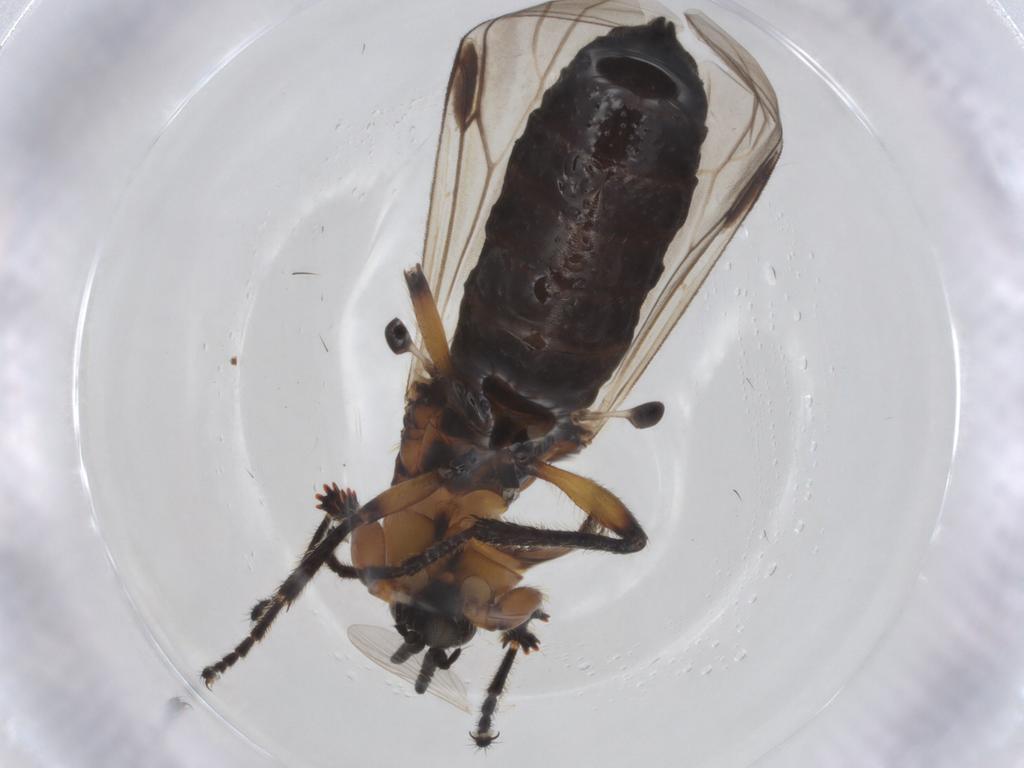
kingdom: Animalia
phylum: Arthropoda
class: Insecta
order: Diptera
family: Bibionidae
